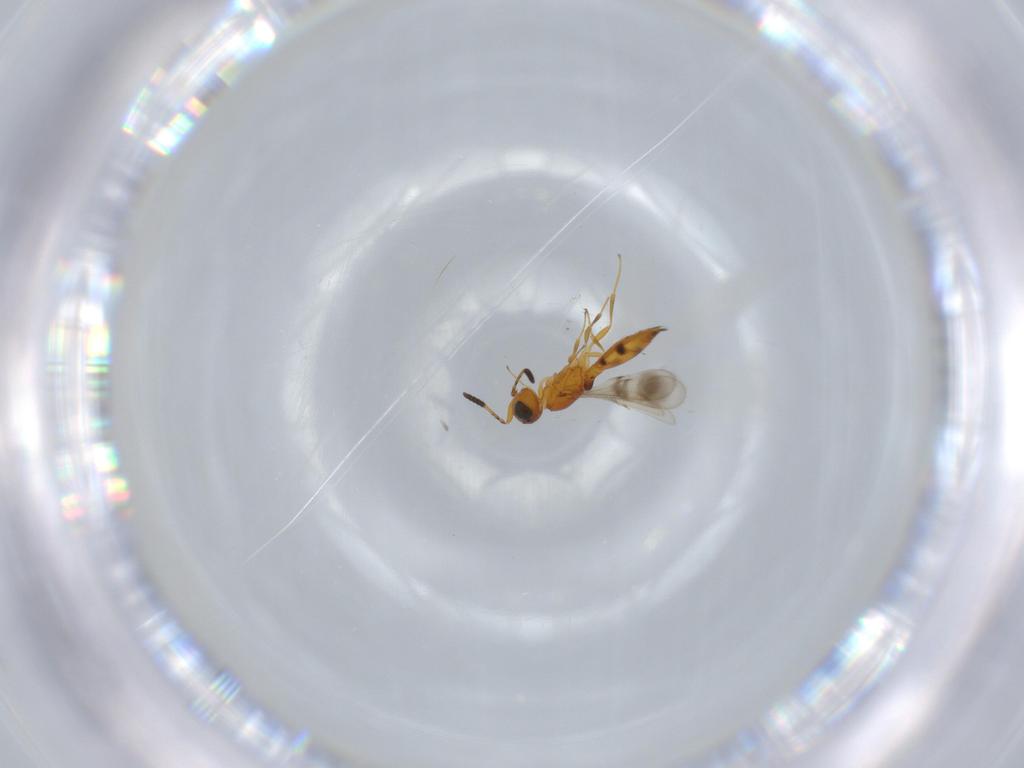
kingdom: Animalia
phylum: Arthropoda
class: Insecta
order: Hymenoptera
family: Scelionidae
